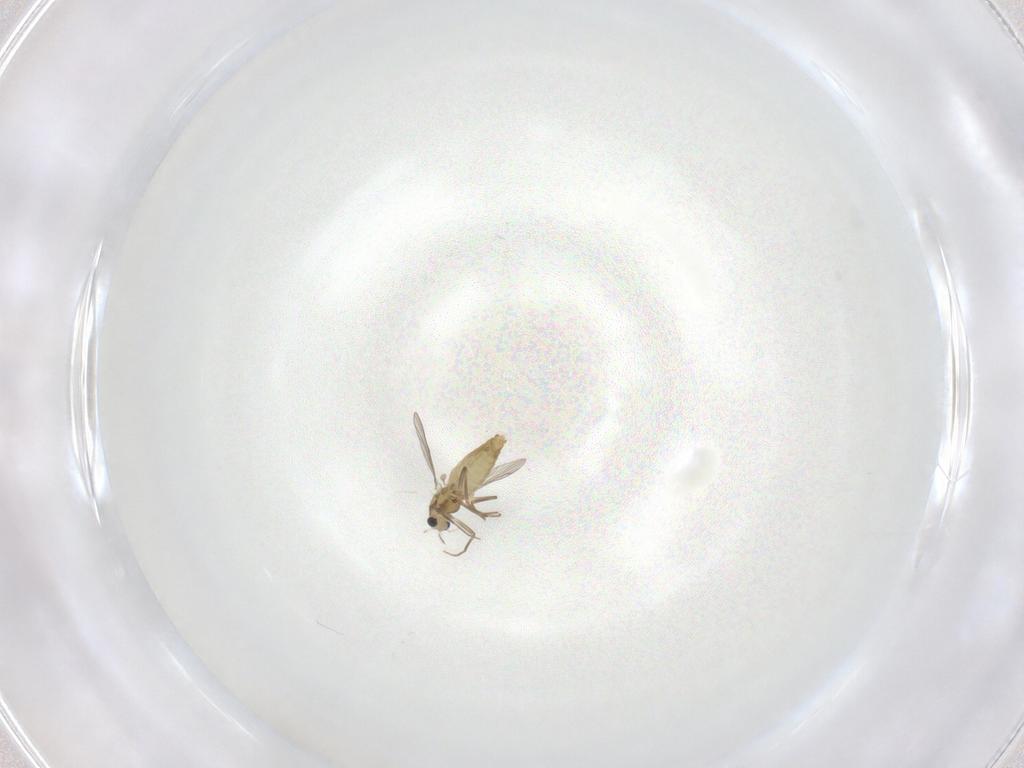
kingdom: Animalia
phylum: Arthropoda
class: Insecta
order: Diptera
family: Chironomidae
